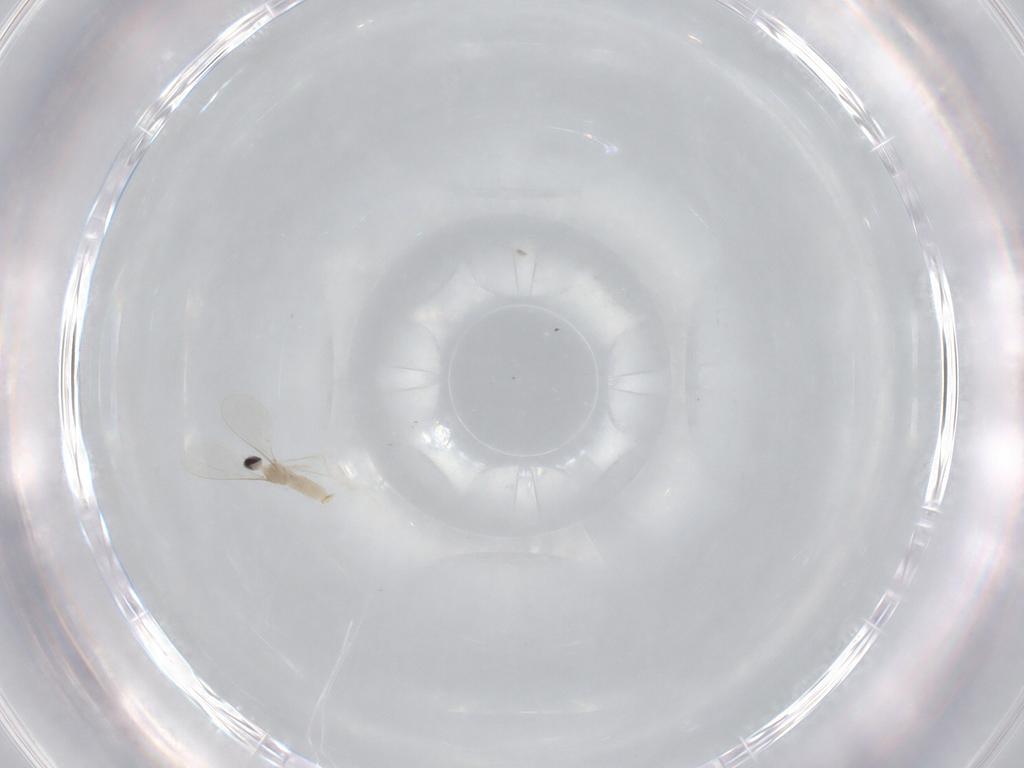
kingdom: Animalia
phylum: Arthropoda
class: Insecta
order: Diptera
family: Cecidomyiidae
